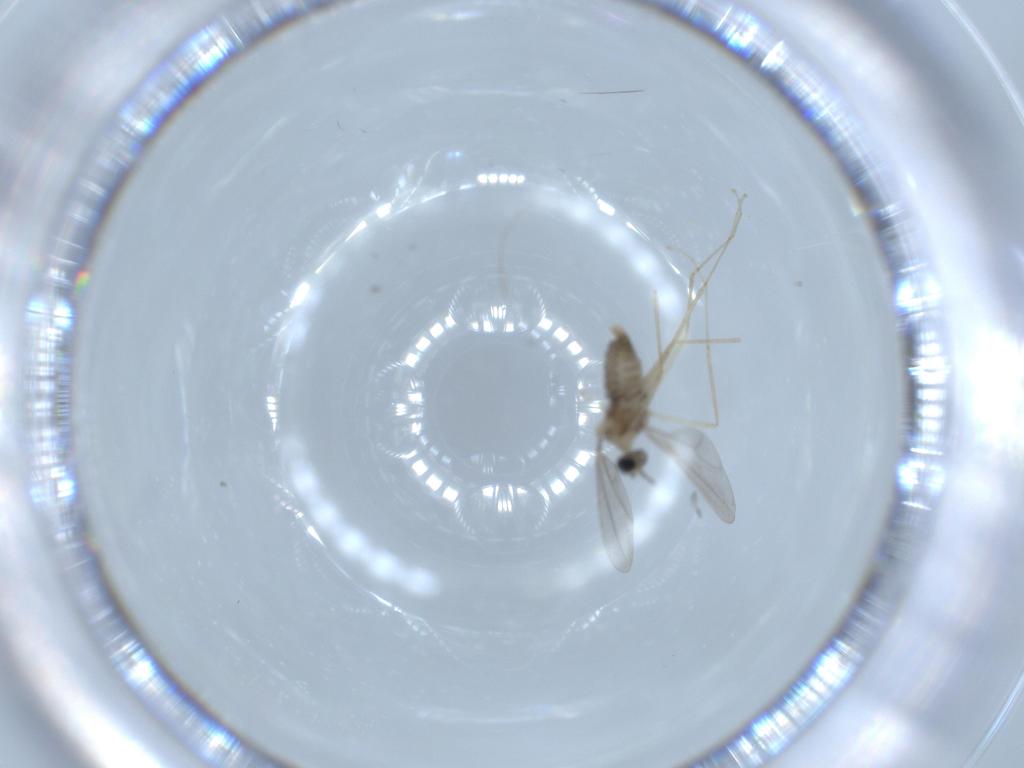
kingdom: Animalia
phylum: Arthropoda
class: Insecta
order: Diptera
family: Cecidomyiidae
